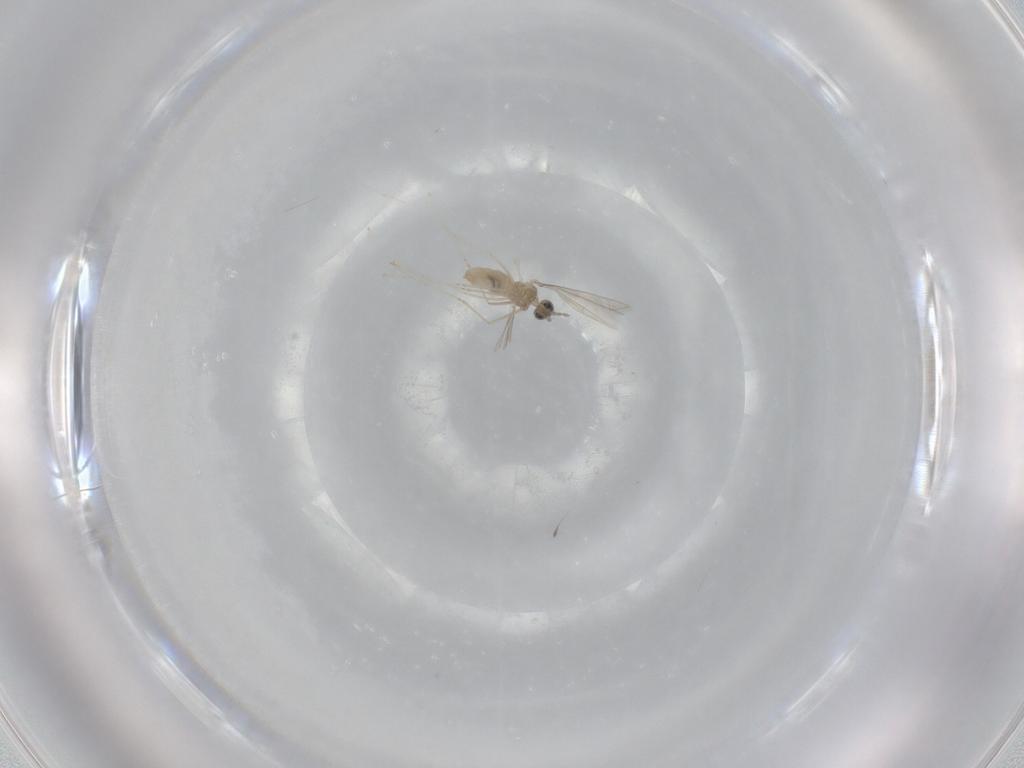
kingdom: Animalia
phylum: Arthropoda
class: Insecta
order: Diptera
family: Cecidomyiidae
